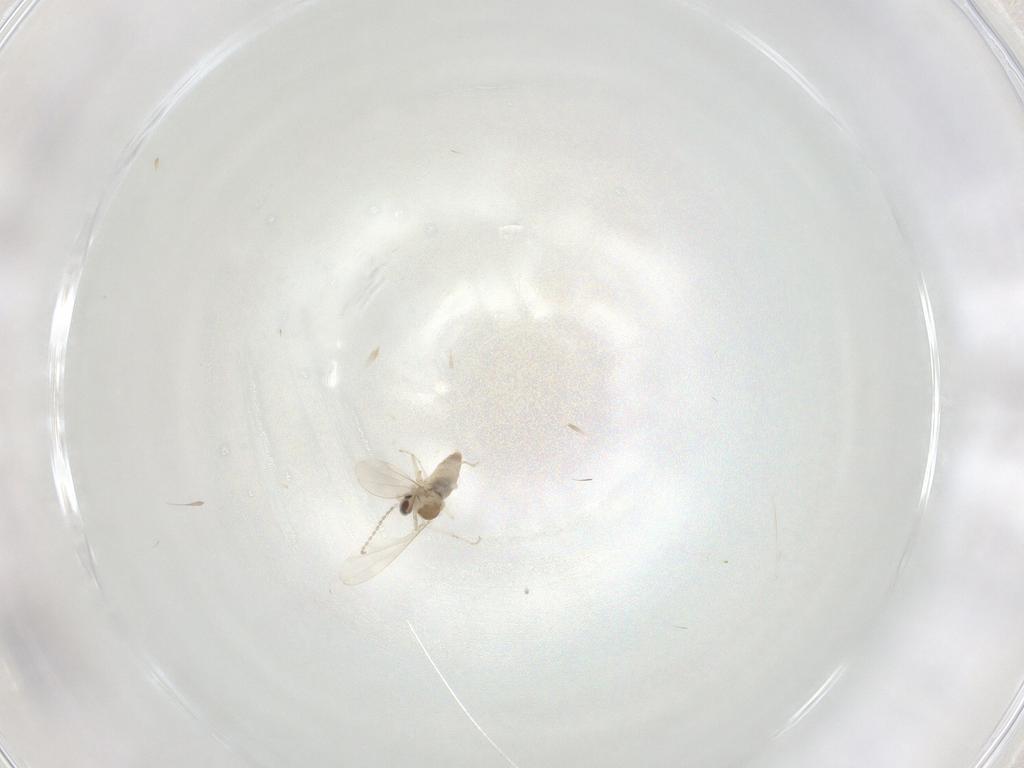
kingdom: Animalia
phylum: Arthropoda
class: Insecta
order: Diptera
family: Cecidomyiidae
